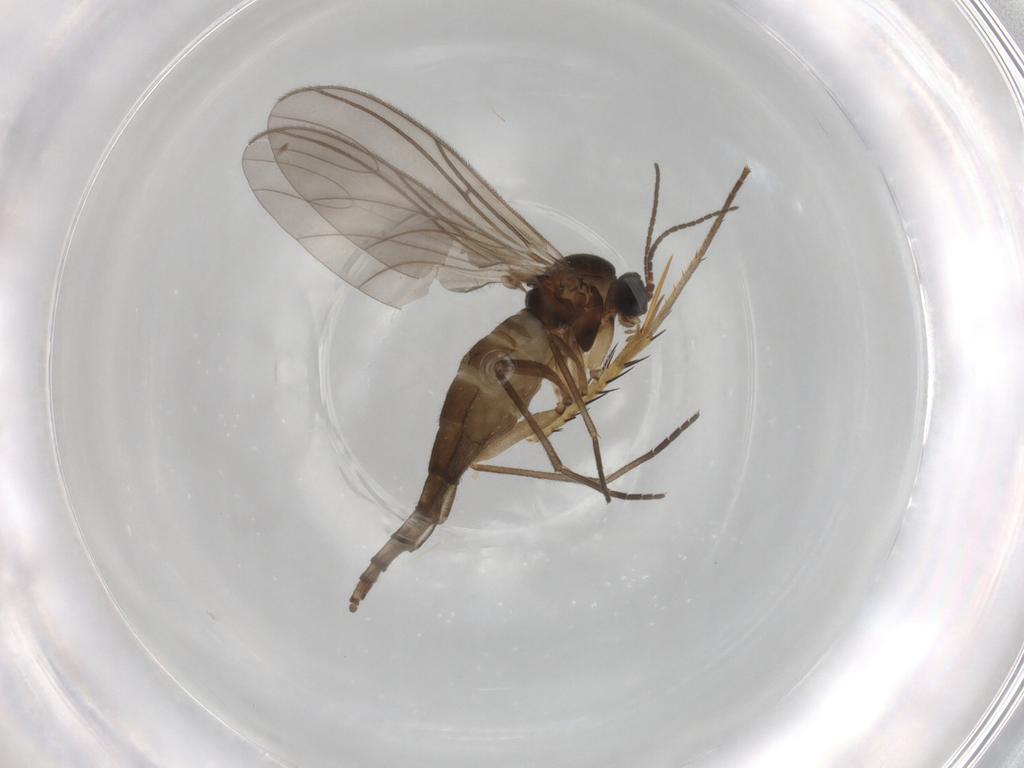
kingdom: Animalia
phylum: Arthropoda
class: Insecta
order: Diptera
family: Sciaridae
